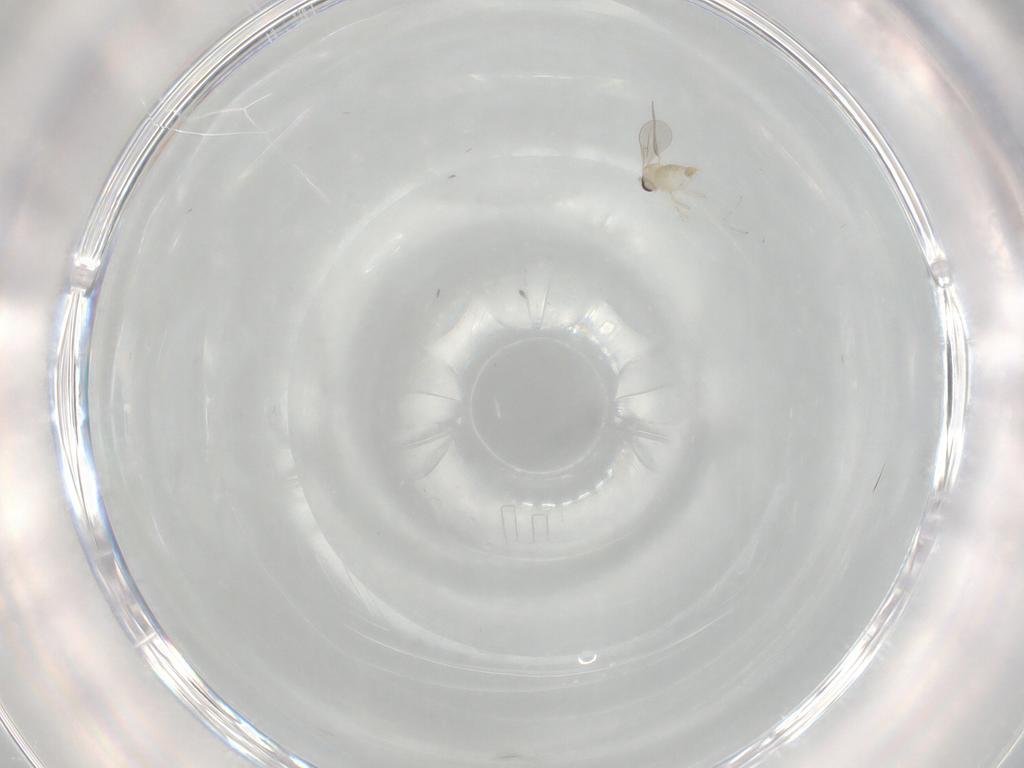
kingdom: Animalia
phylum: Arthropoda
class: Insecta
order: Diptera
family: Cecidomyiidae
